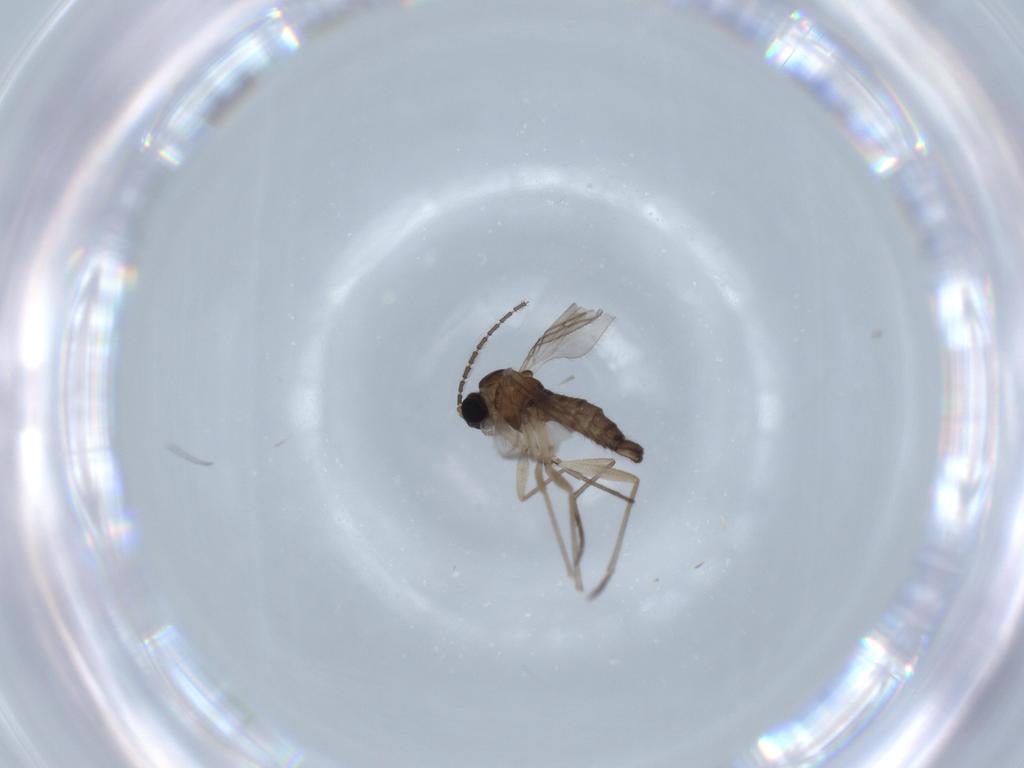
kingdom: Animalia
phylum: Arthropoda
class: Insecta
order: Diptera
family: Sciaridae
